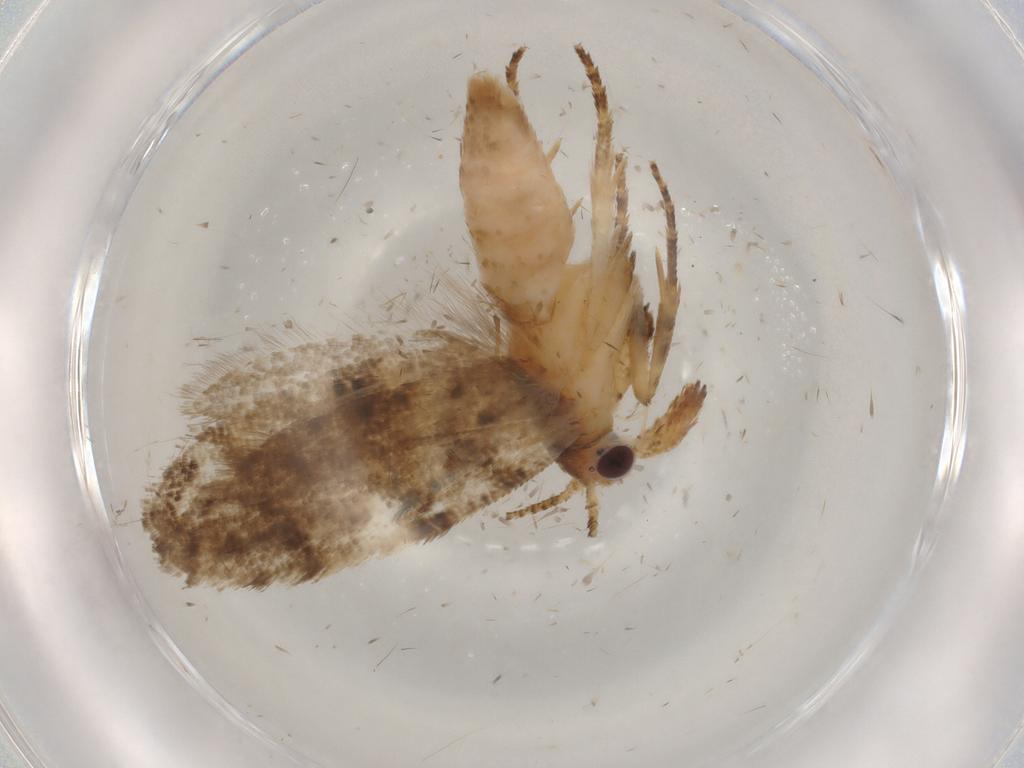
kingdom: Animalia
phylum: Arthropoda
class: Insecta
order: Lepidoptera
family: Ypsolophidae
